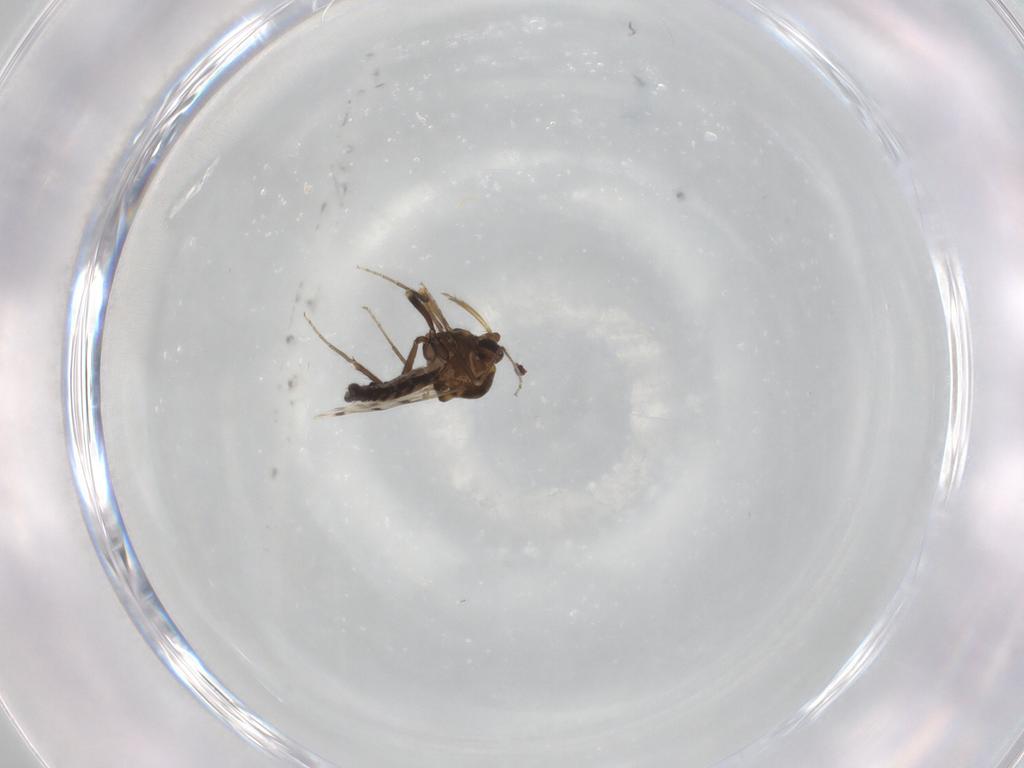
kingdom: Animalia
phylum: Arthropoda
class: Insecta
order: Diptera
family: Ceratopogonidae
